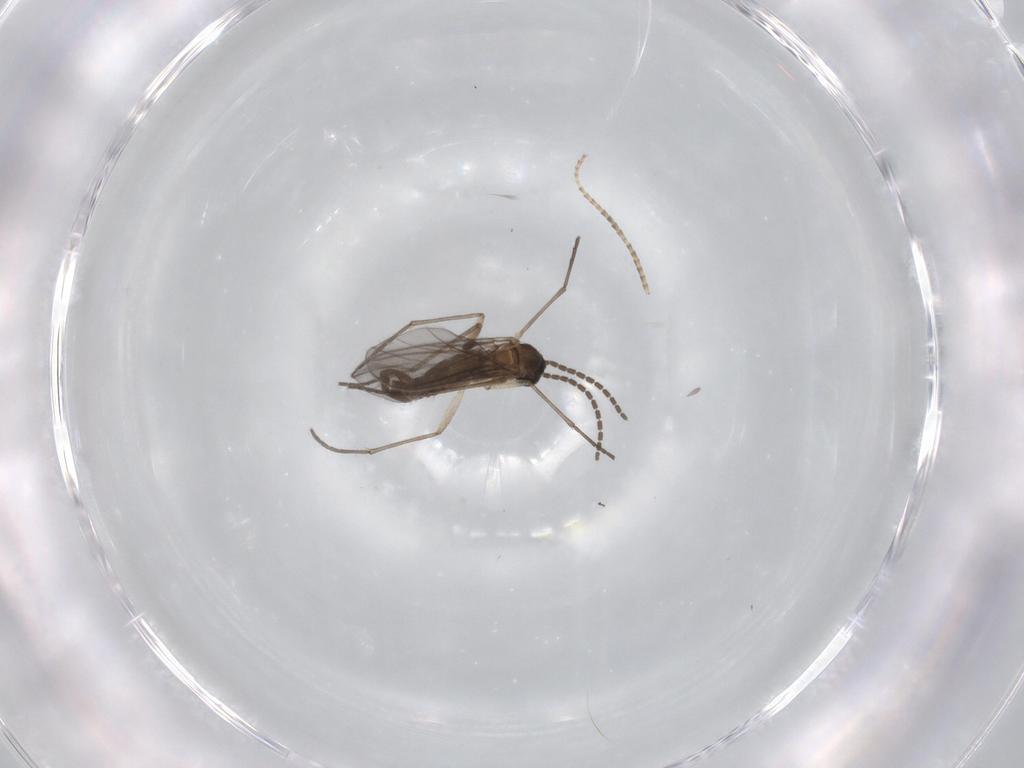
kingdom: Animalia
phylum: Arthropoda
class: Insecta
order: Diptera
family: Sciaridae
